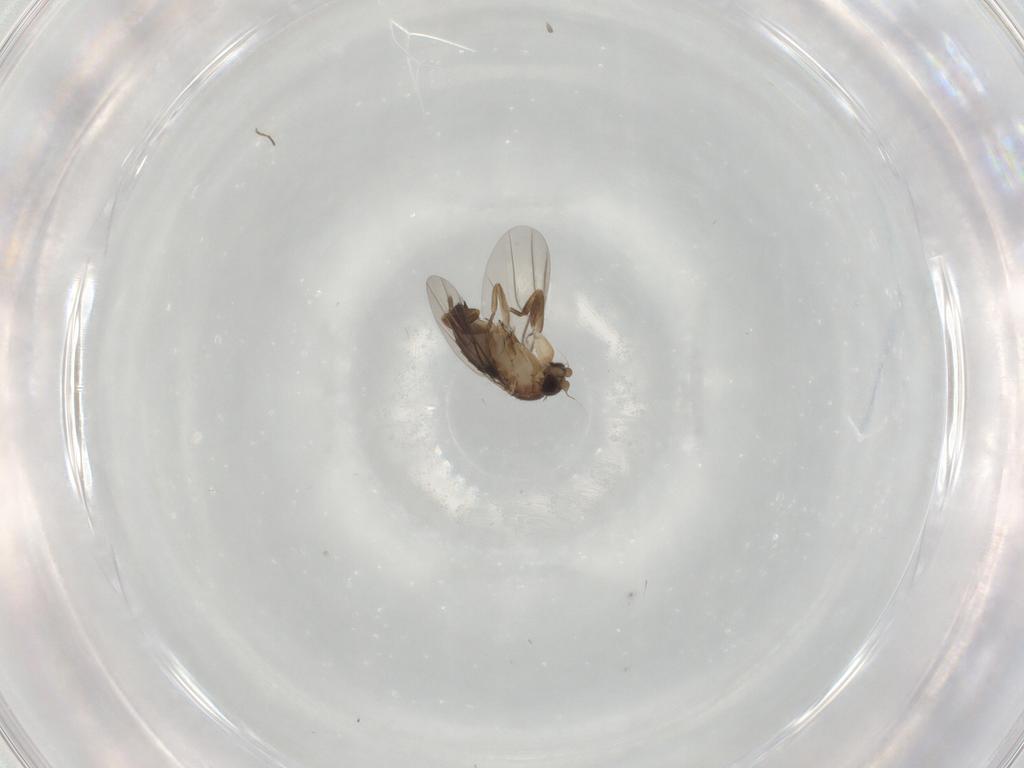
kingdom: Animalia
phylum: Arthropoda
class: Insecta
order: Diptera
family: Phoridae
